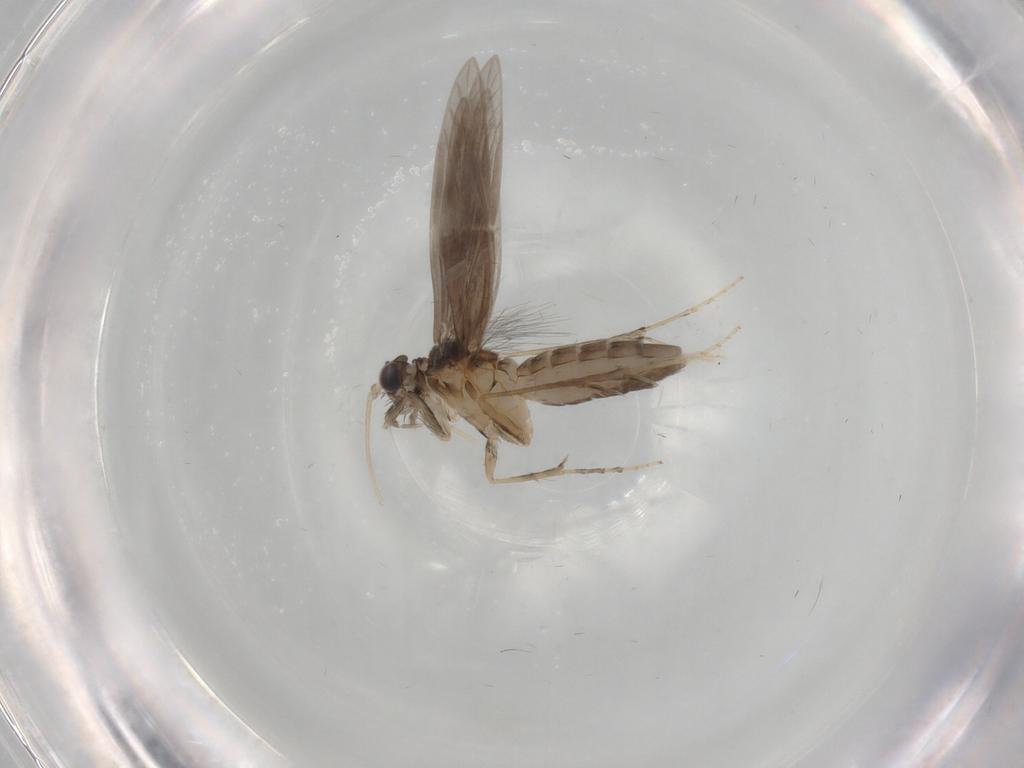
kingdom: Animalia
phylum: Arthropoda
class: Insecta
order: Trichoptera
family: Hydroptilidae
